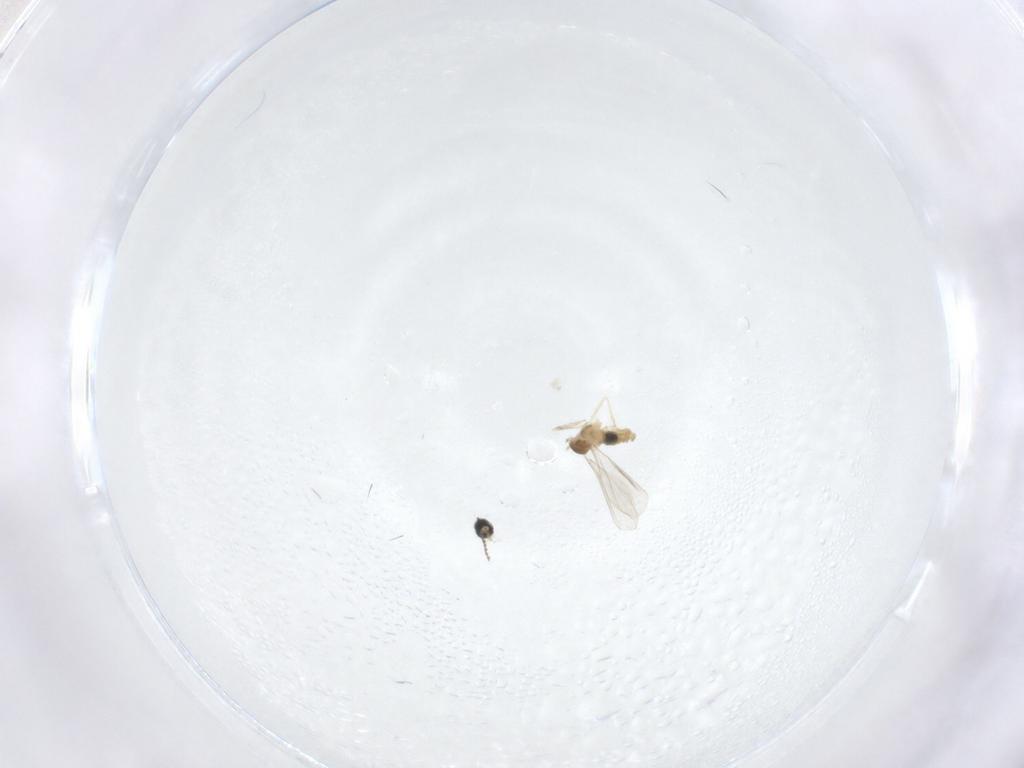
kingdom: Animalia
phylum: Arthropoda
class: Insecta
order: Diptera
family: Cecidomyiidae
